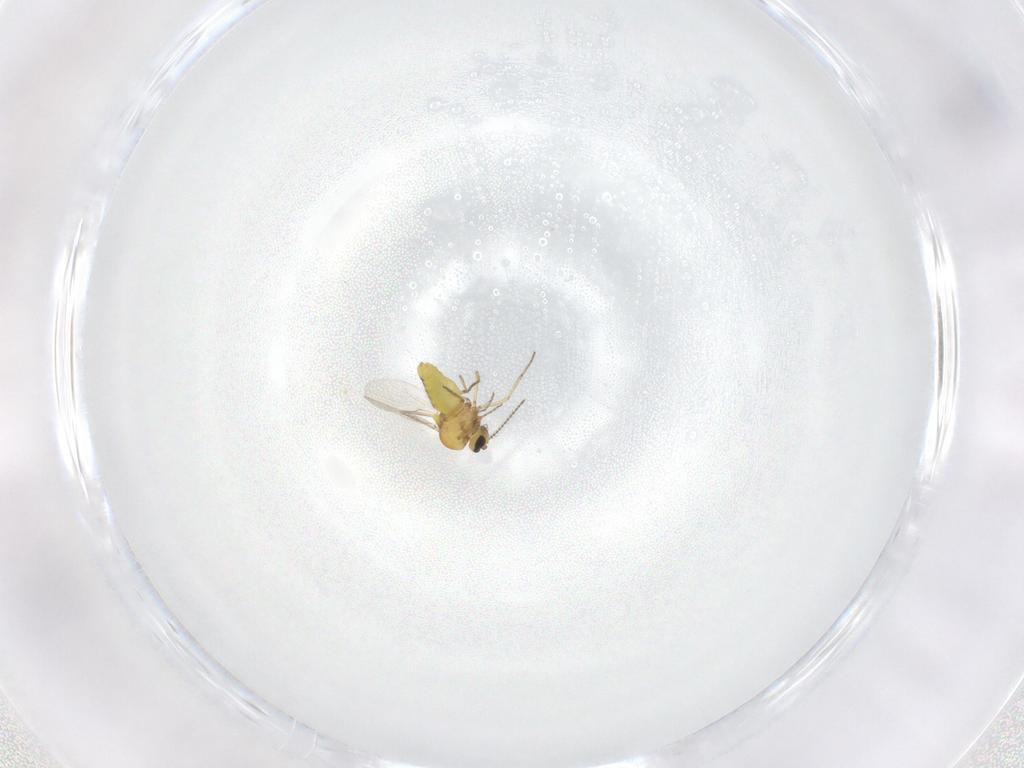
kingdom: Animalia
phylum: Arthropoda
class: Insecta
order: Diptera
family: Ceratopogonidae
